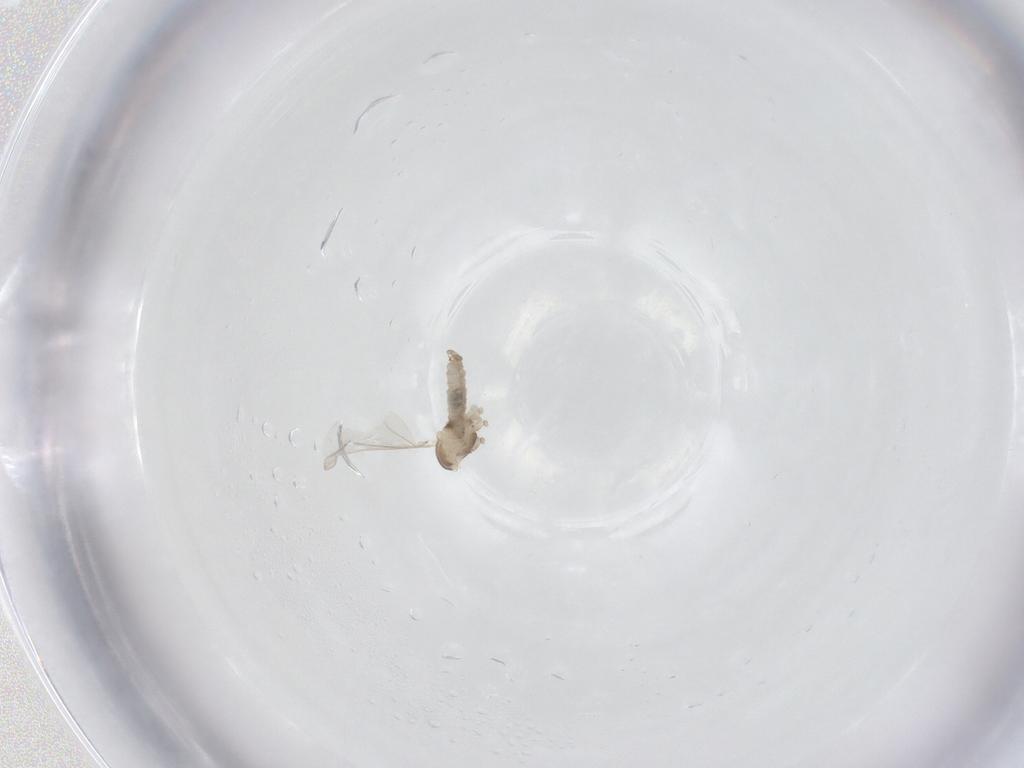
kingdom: Animalia
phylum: Arthropoda
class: Insecta
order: Diptera
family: Cecidomyiidae
